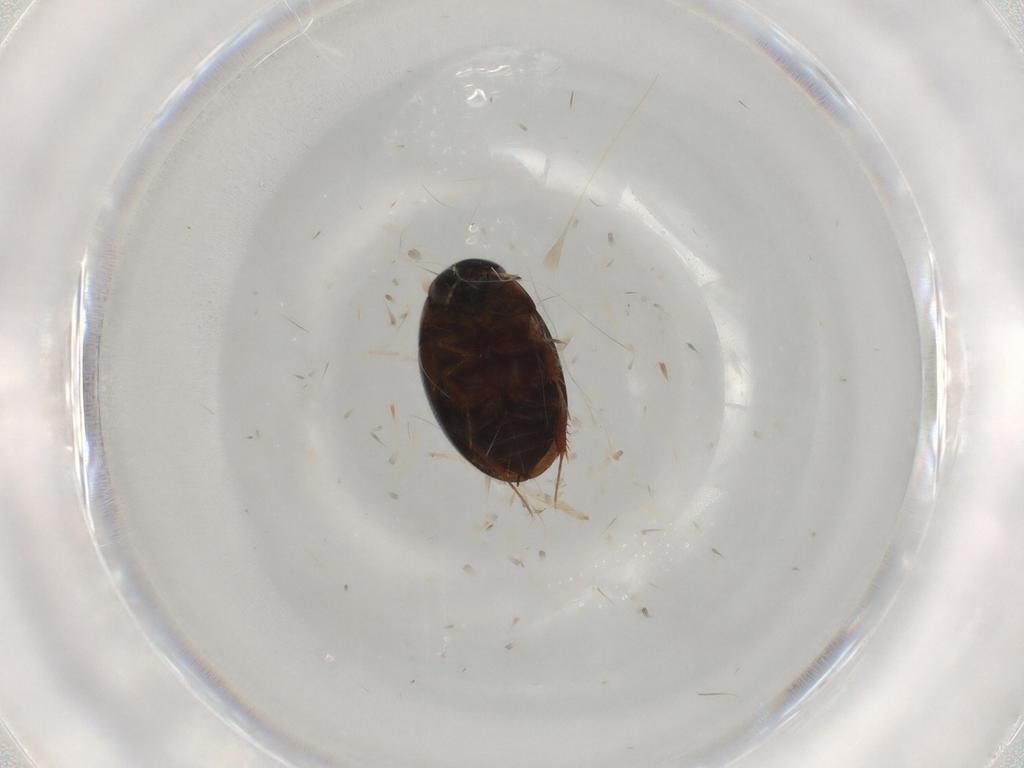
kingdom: Animalia
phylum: Arthropoda
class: Insecta
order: Coleoptera
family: Hydrophilidae
